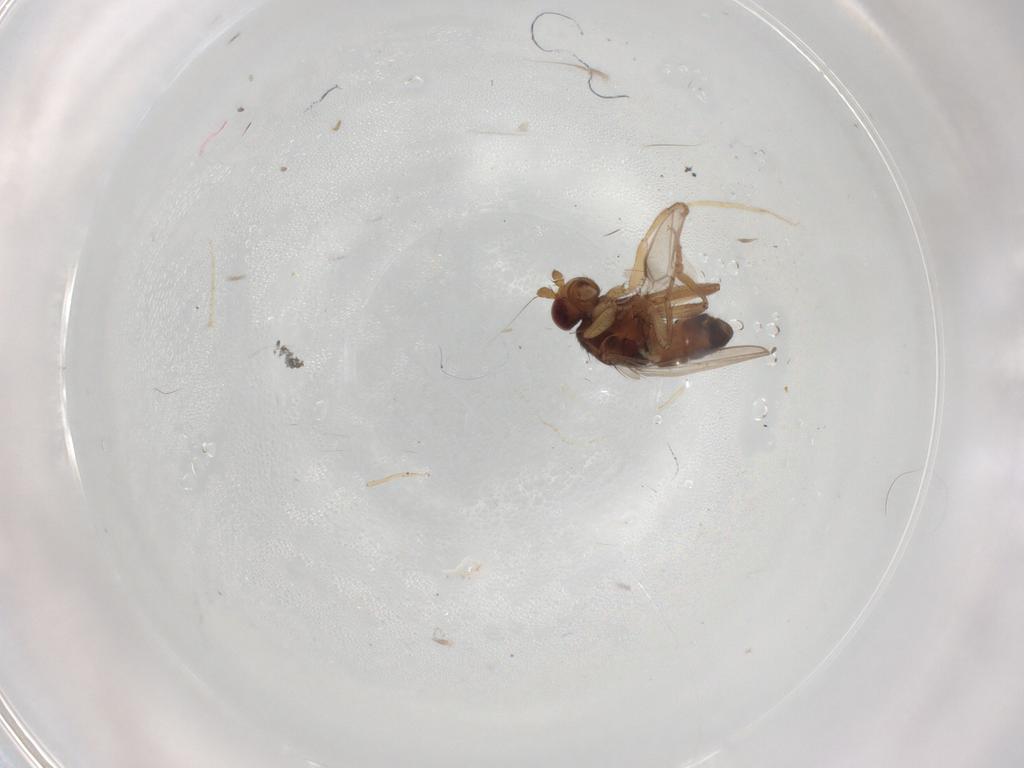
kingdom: Animalia
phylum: Arthropoda
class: Insecta
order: Diptera
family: Sphaeroceridae
